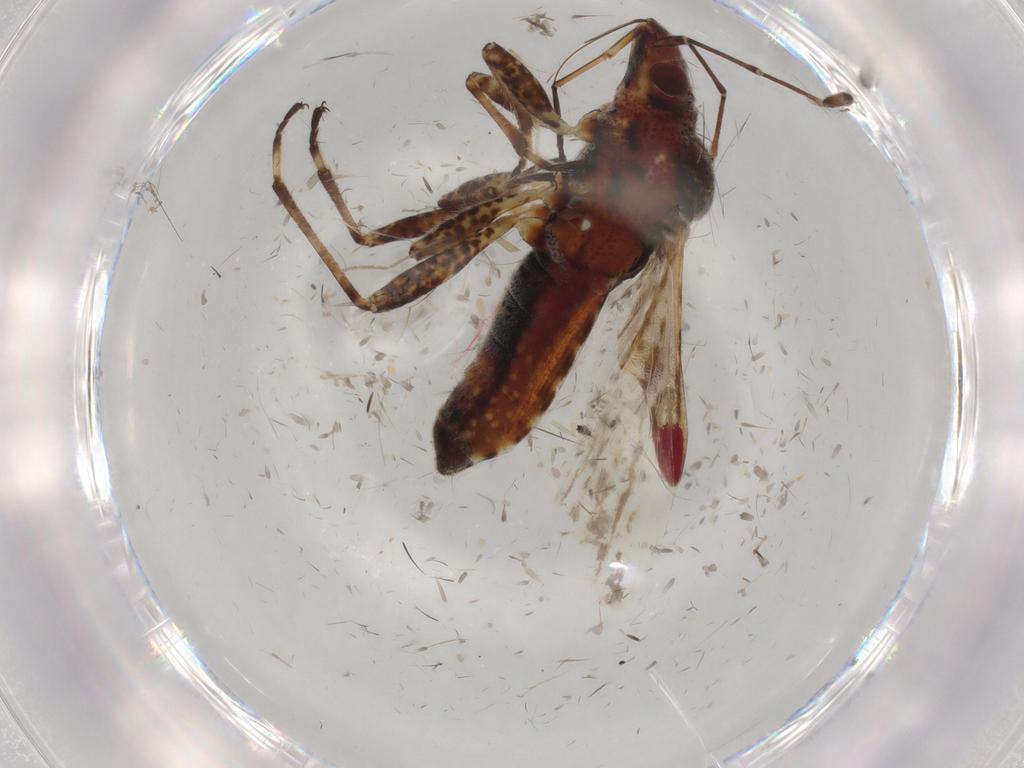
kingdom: Animalia
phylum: Arthropoda
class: Insecta
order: Hemiptera
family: Lygaeidae
